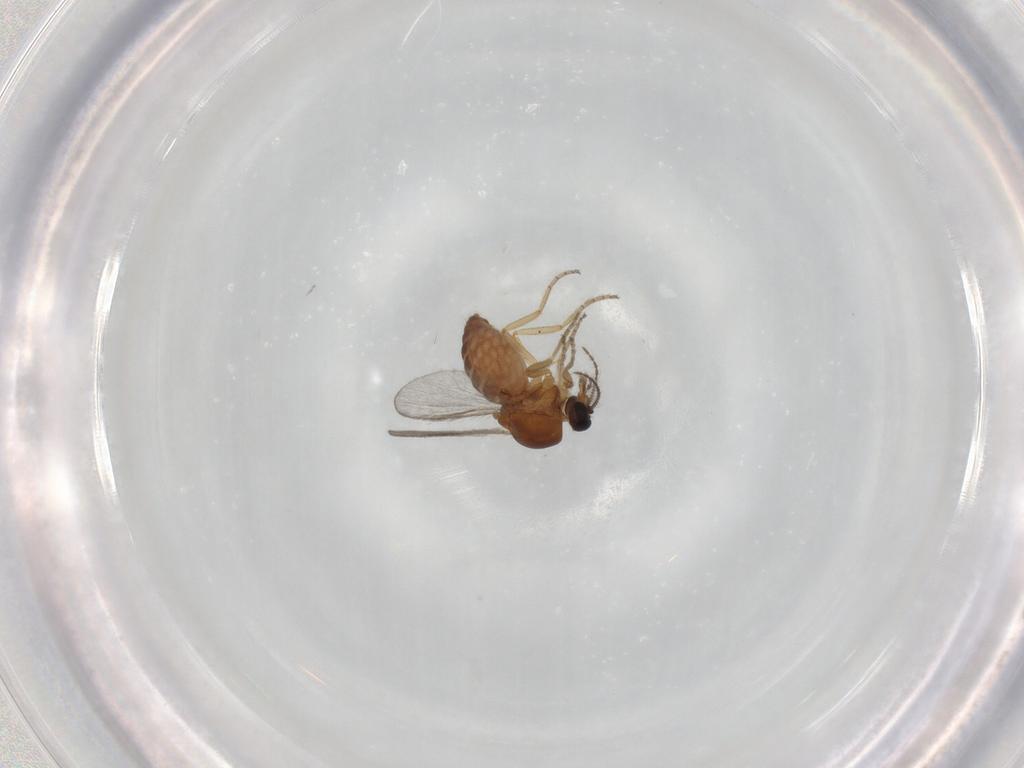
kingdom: Animalia
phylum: Arthropoda
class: Insecta
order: Diptera
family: Ceratopogonidae
